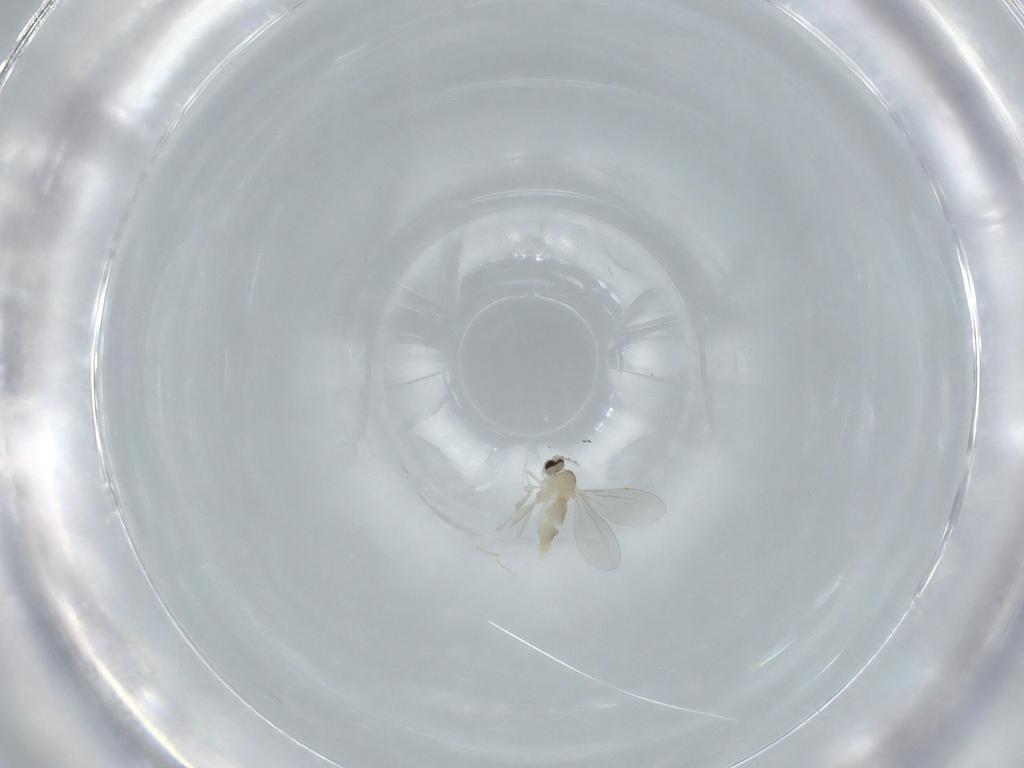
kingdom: Animalia
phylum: Arthropoda
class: Insecta
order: Diptera
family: Cecidomyiidae
